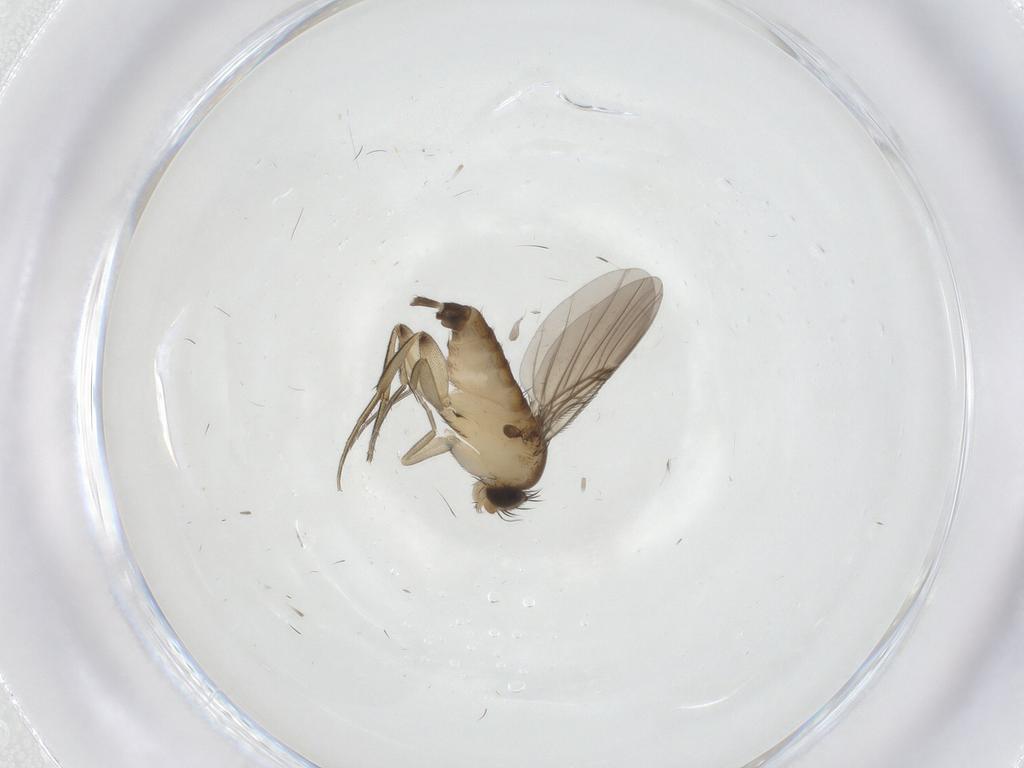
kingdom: Animalia
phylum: Arthropoda
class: Insecta
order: Diptera
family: Phoridae
